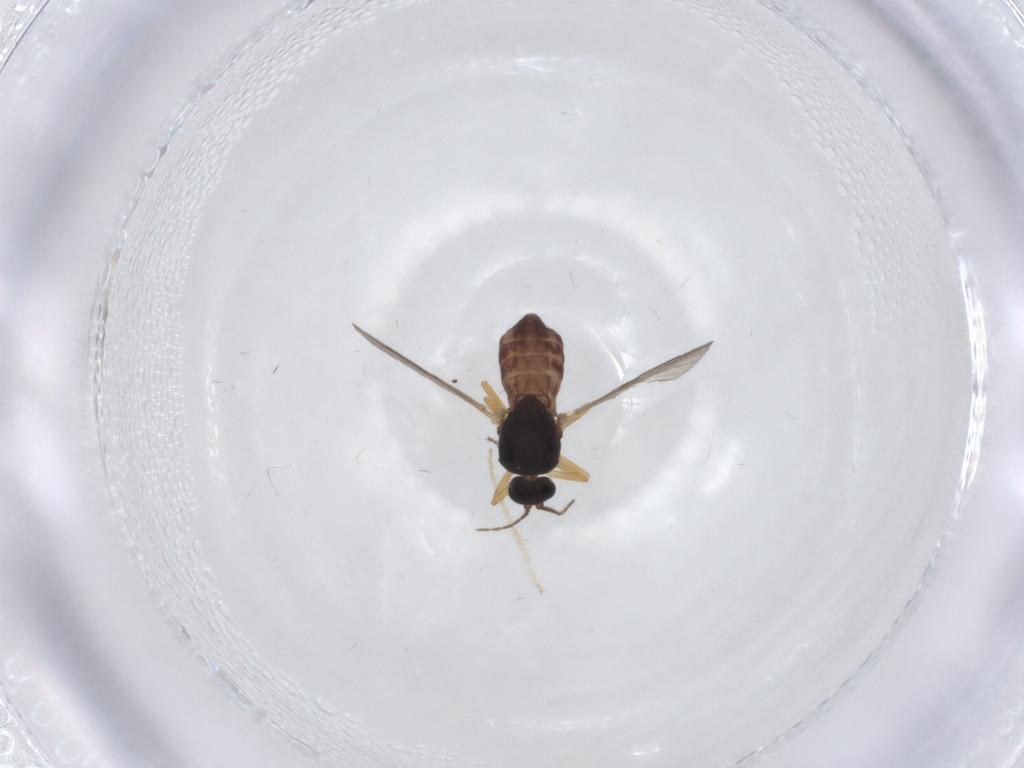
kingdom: Animalia
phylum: Arthropoda
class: Insecta
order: Diptera
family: Ceratopogonidae
